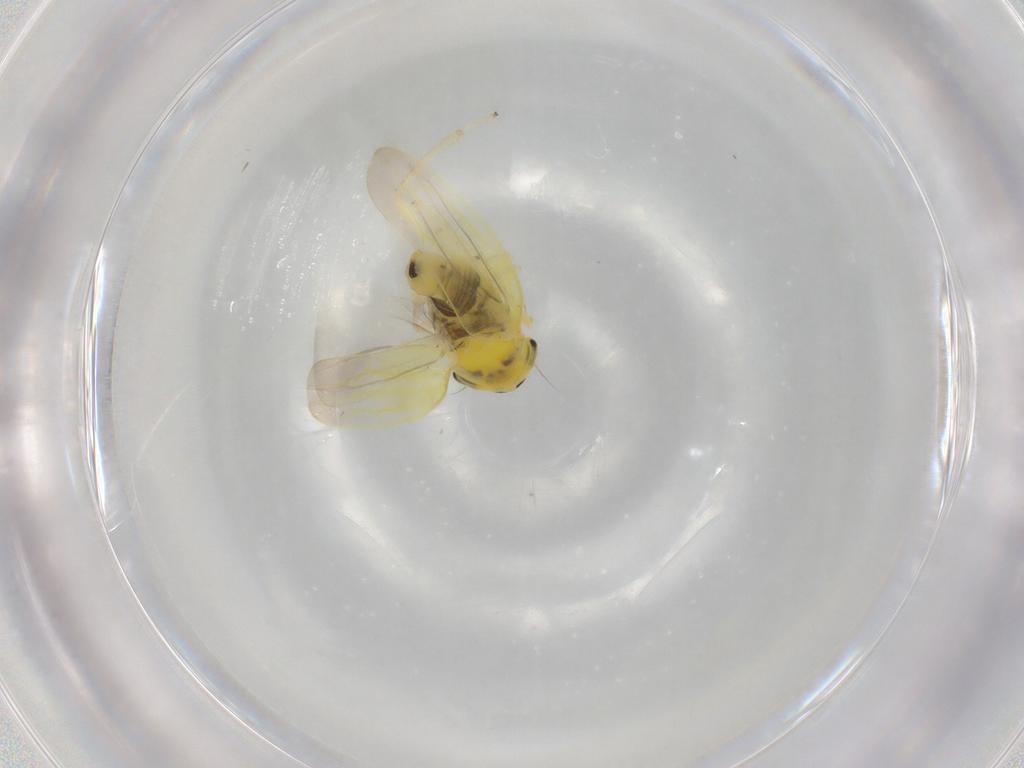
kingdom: Animalia
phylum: Arthropoda
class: Insecta
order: Hemiptera
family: Cicadellidae
